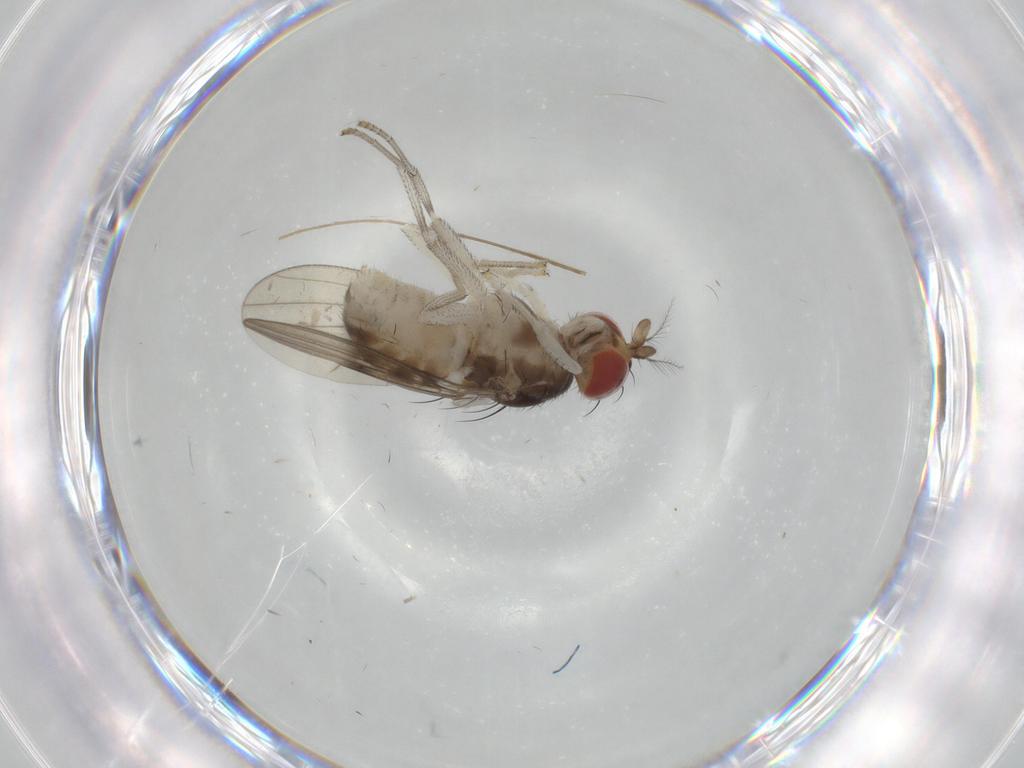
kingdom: Animalia
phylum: Arthropoda
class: Insecta
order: Diptera
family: Chironomidae
